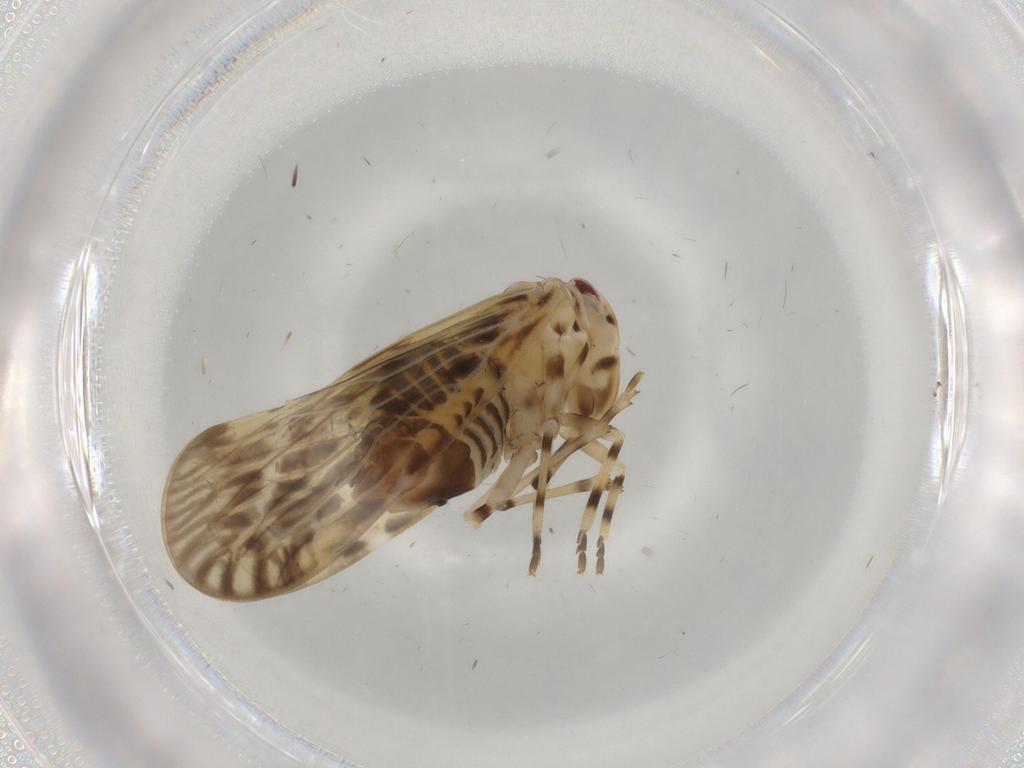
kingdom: Animalia
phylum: Arthropoda
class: Insecta
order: Hemiptera
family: Derbidae
